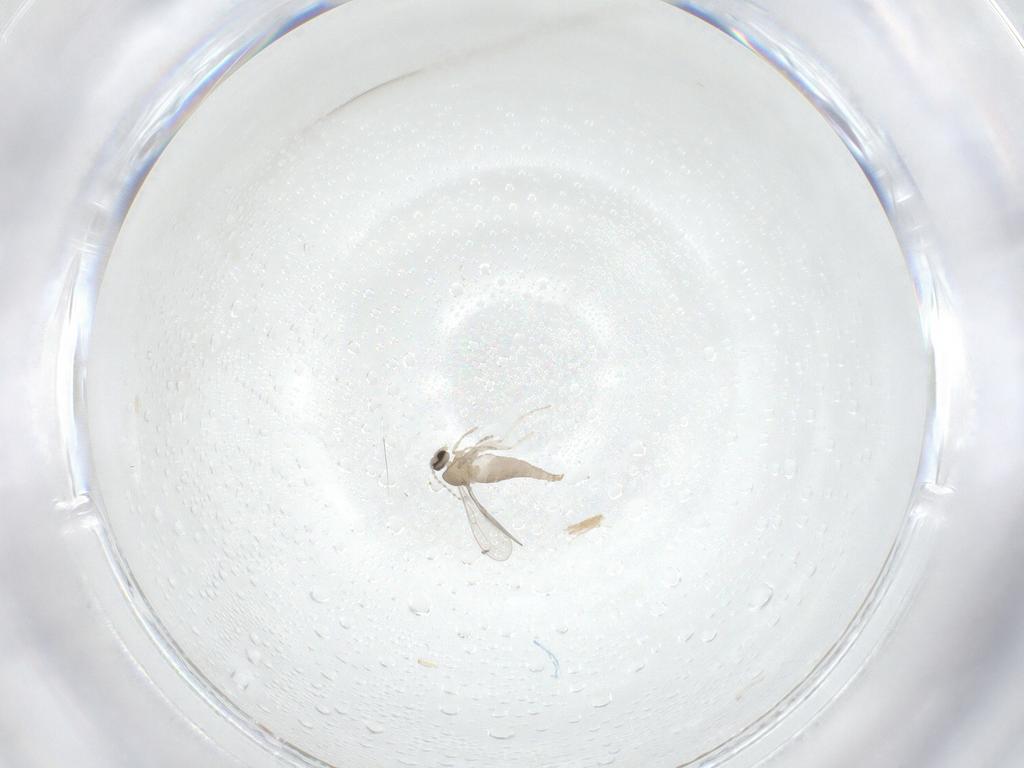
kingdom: Animalia
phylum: Arthropoda
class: Insecta
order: Diptera
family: Cecidomyiidae
